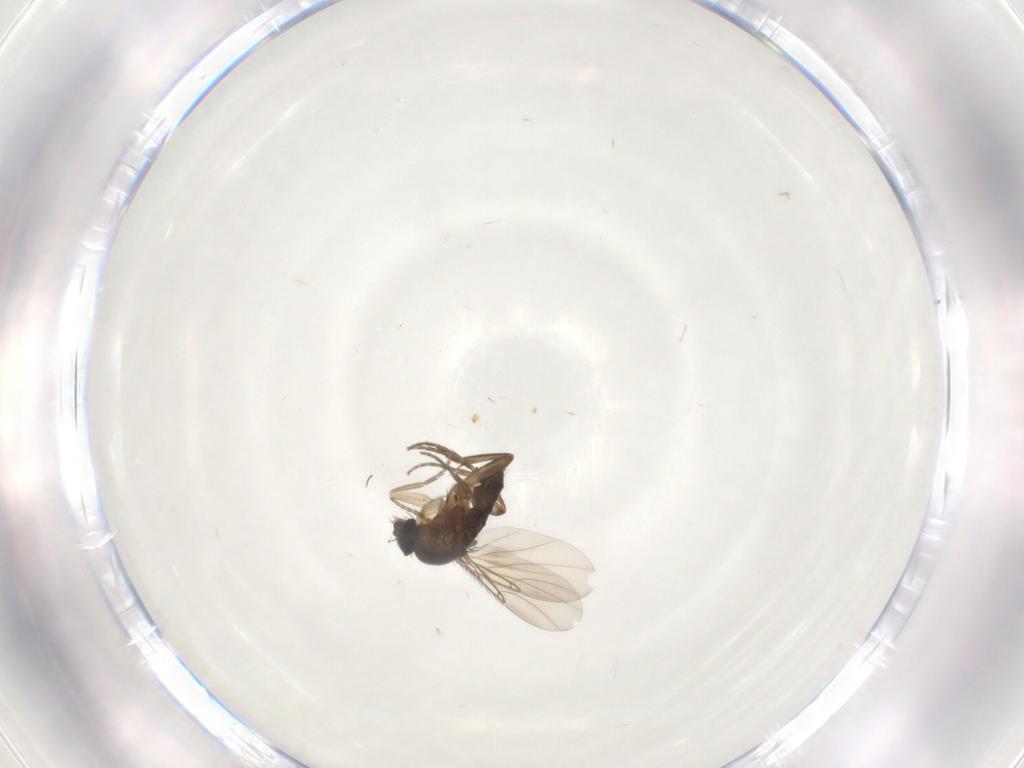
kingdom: Animalia
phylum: Arthropoda
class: Insecta
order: Diptera
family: Phoridae
